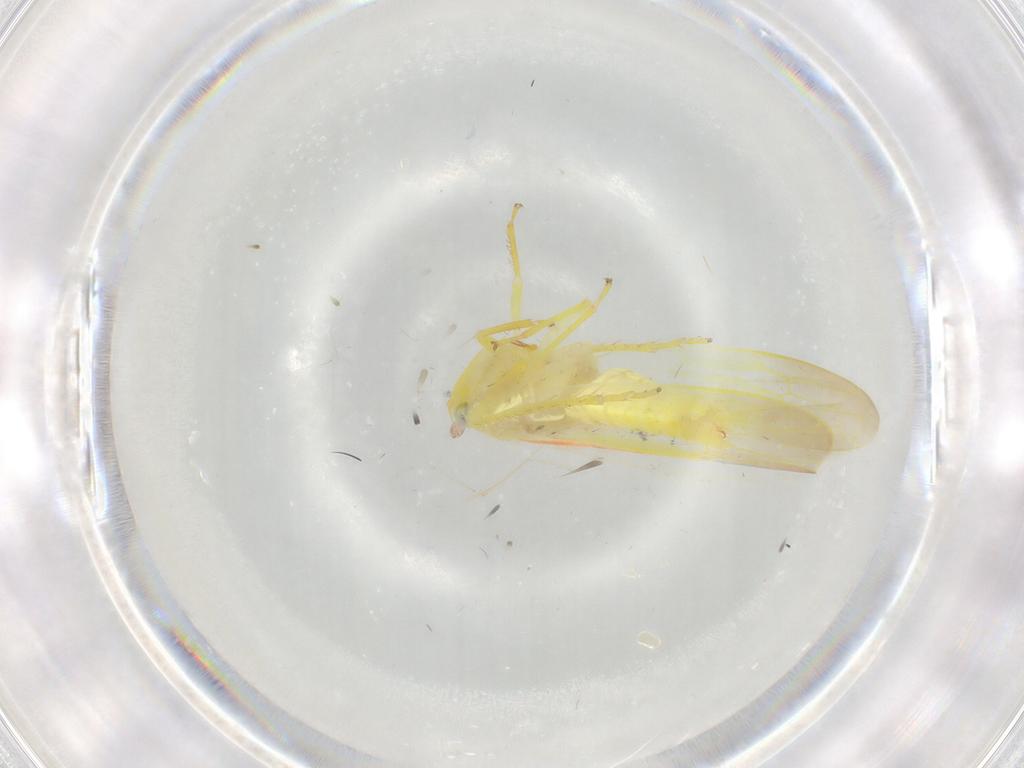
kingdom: Animalia
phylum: Arthropoda
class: Insecta
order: Hemiptera
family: Cicadellidae
